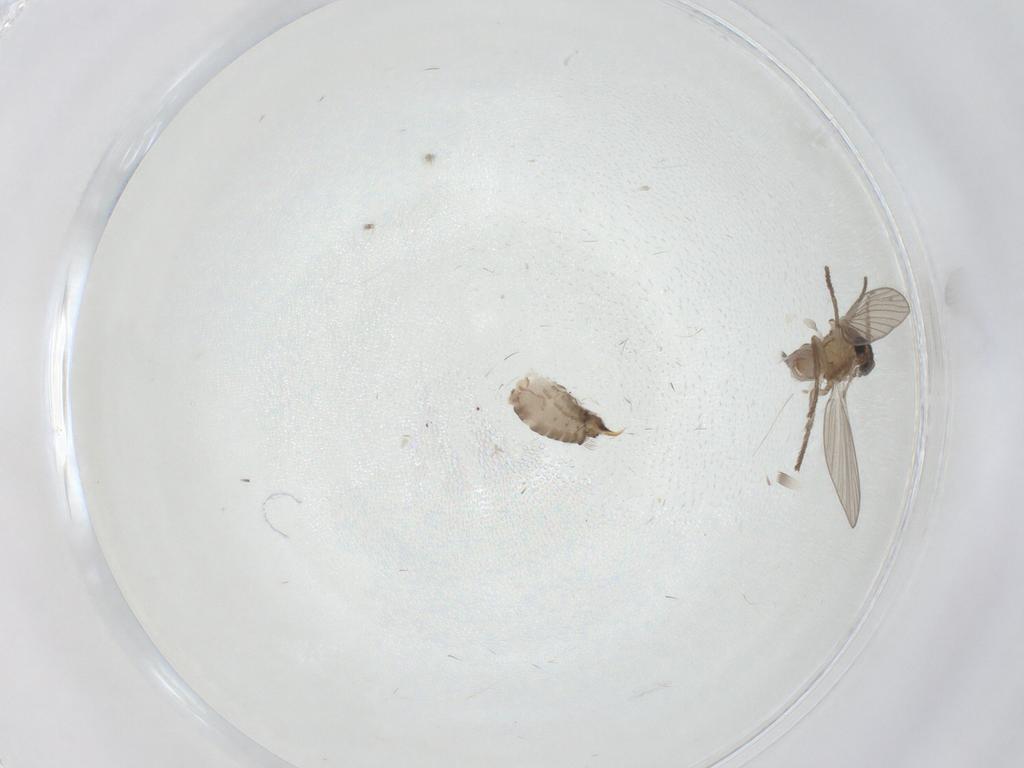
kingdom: Animalia
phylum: Arthropoda
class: Insecta
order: Diptera
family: Psychodidae
